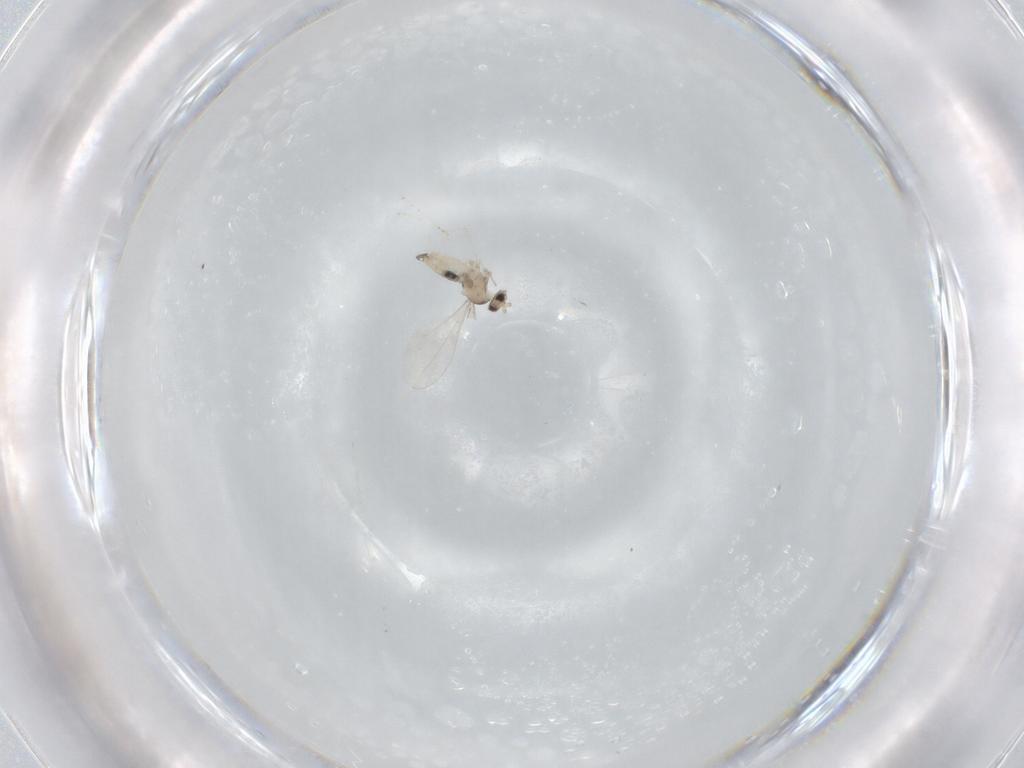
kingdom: Animalia
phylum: Arthropoda
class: Insecta
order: Diptera
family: Cecidomyiidae
